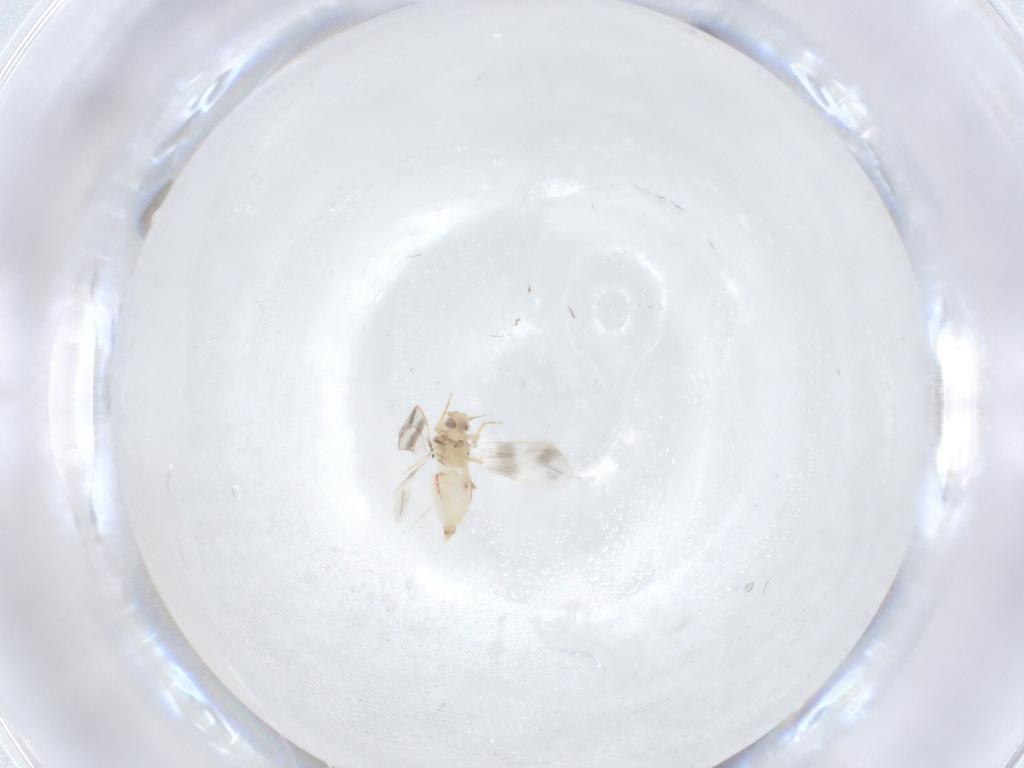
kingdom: Animalia
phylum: Arthropoda
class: Insecta
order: Hemiptera
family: Fulgoridae
